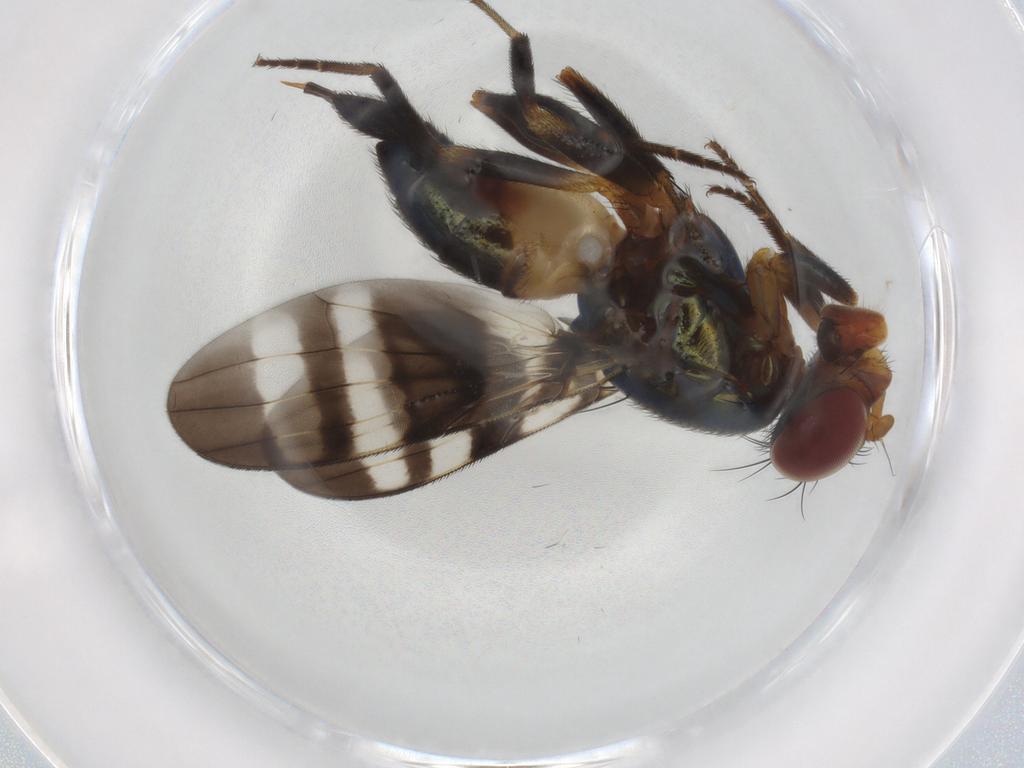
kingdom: Animalia
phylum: Arthropoda
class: Insecta
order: Diptera
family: Ulidiidae
